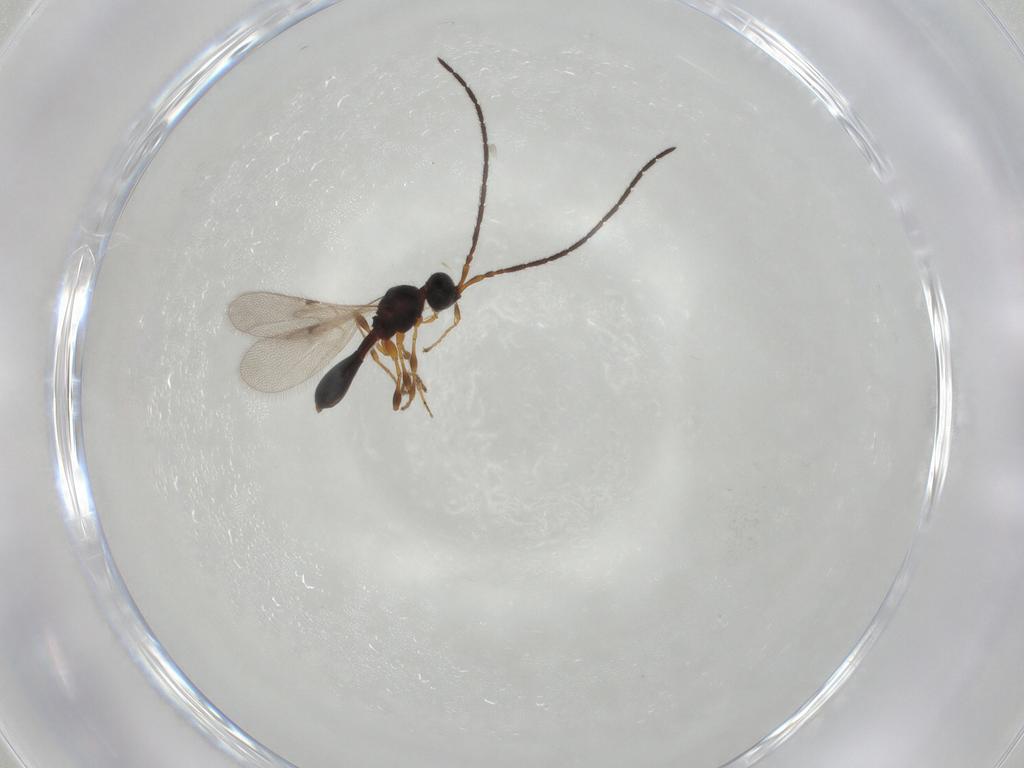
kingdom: Animalia
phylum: Arthropoda
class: Insecta
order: Hymenoptera
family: Diapriidae
